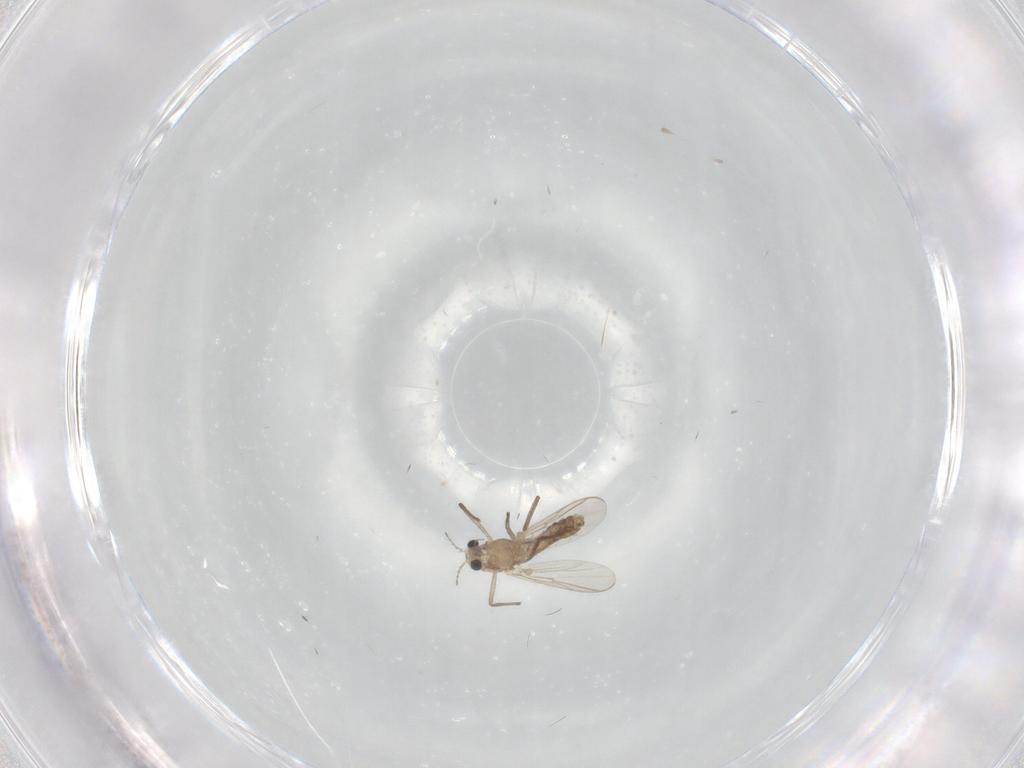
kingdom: Animalia
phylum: Arthropoda
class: Insecta
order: Diptera
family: Chironomidae
